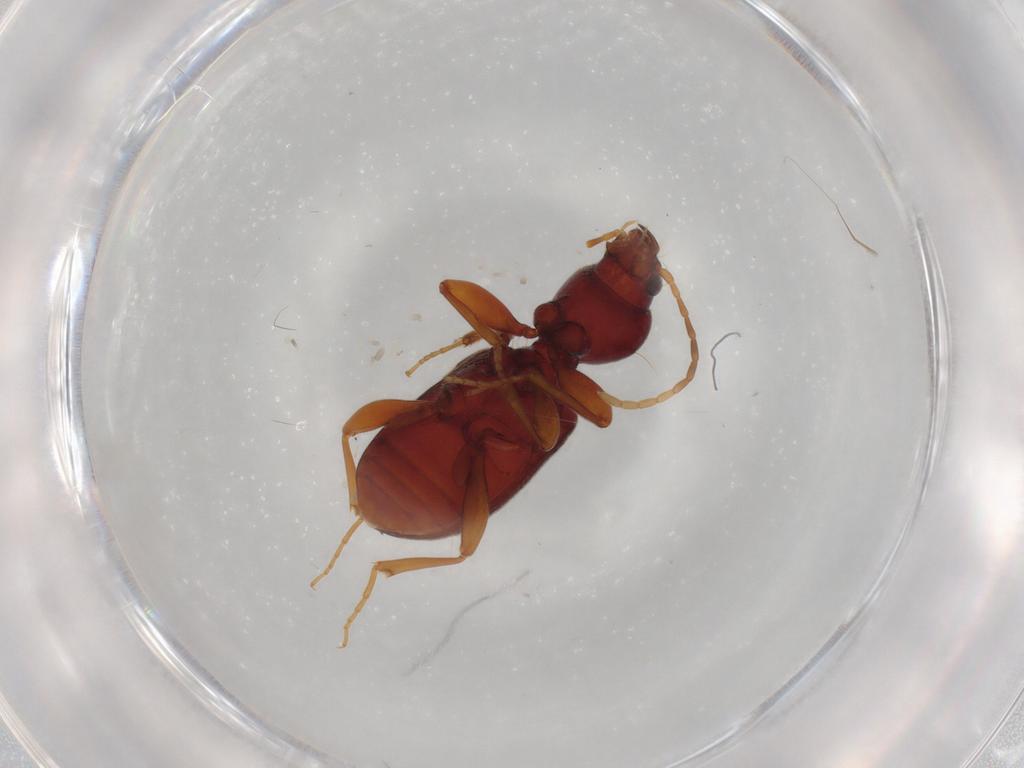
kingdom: Animalia
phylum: Arthropoda
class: Insecta
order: Coleoptera
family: Carabidae
